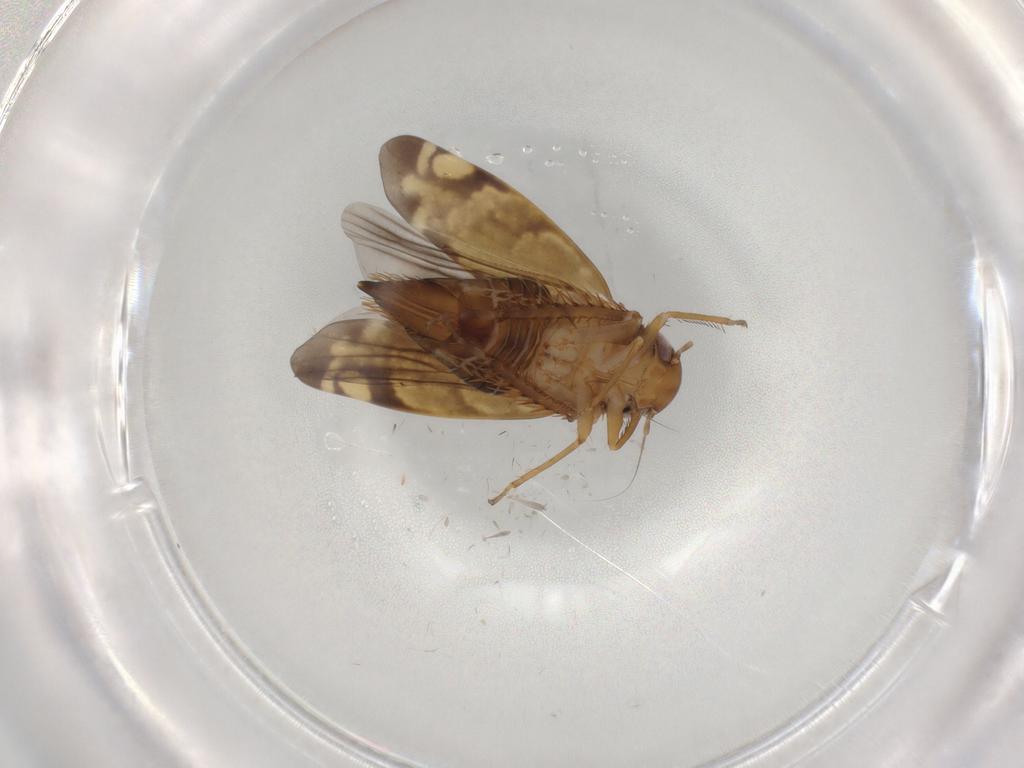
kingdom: Animalia
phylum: Arthropoda
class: Insecta
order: Hemiptera
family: Cicadellidae
